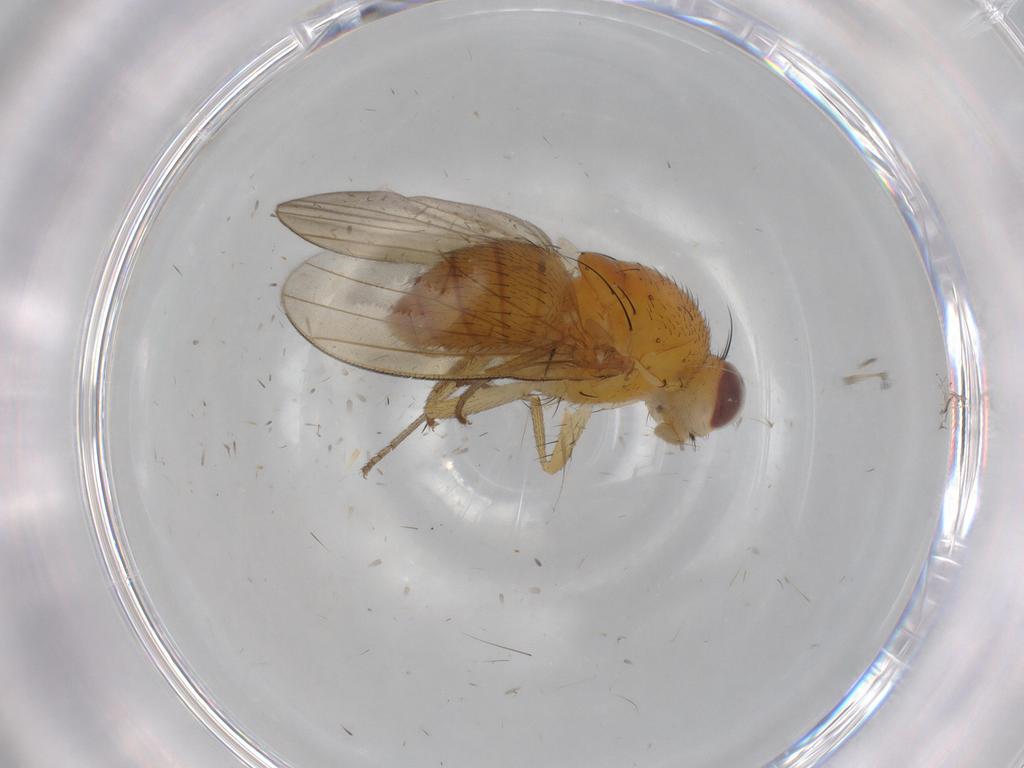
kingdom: Animalia
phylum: Arthropoda
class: Insecta
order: Diptera
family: Lauxaniidae
